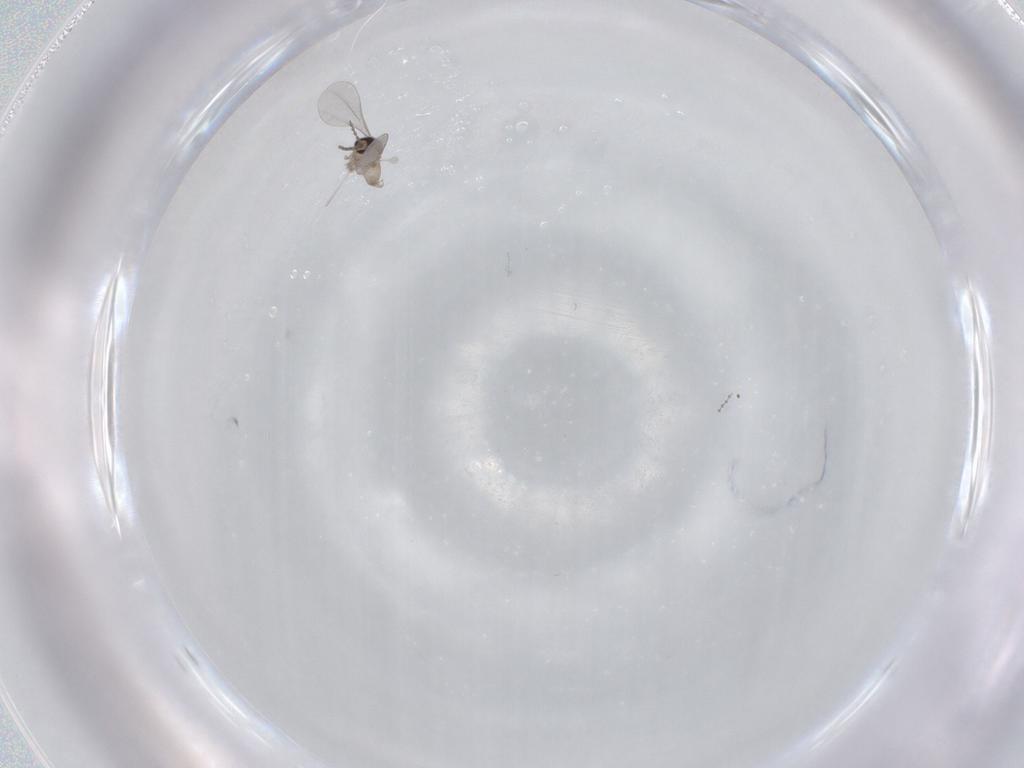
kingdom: Animalia
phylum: Arthropoda
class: Insecta
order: Diptera
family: Cecidomyiidae
